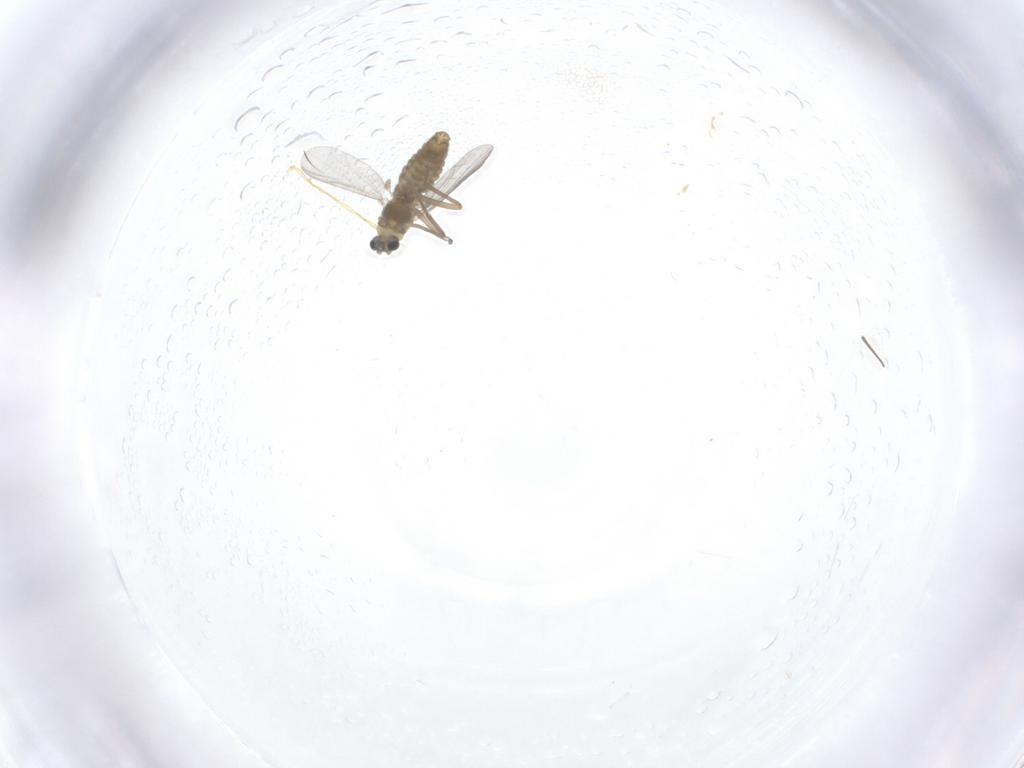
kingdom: Animalia
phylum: Arthropoda
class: Insecta
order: Diptera
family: Chironomidae
